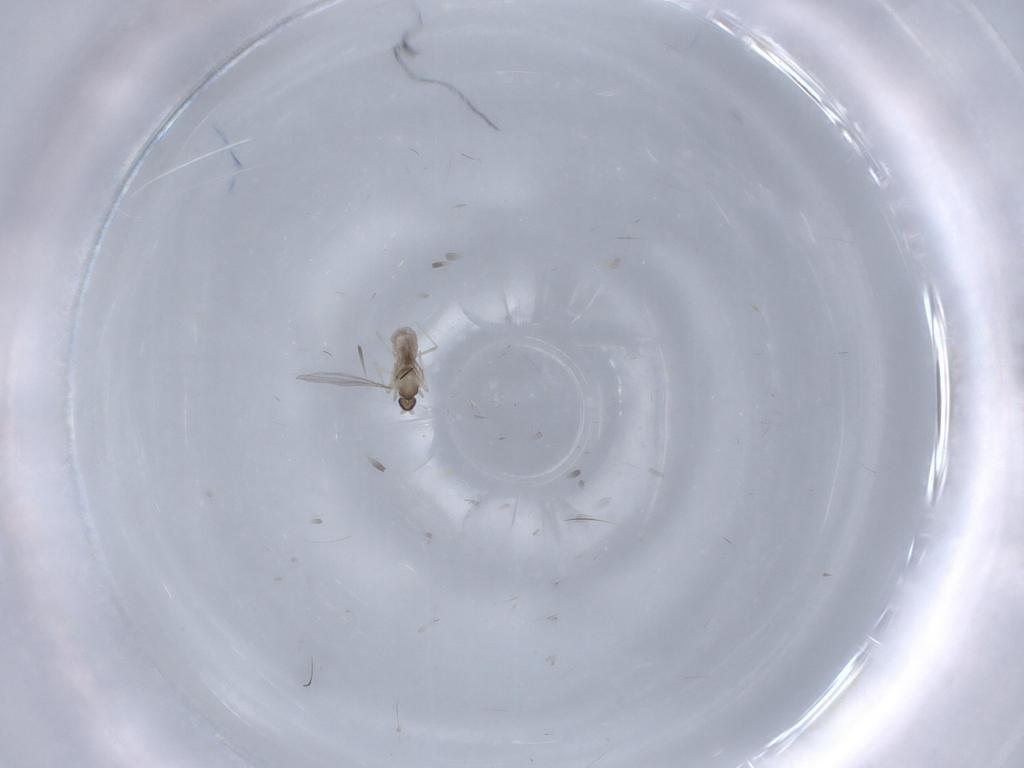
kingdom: Animalia
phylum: Arthropoda
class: Insecta
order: Diptera
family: Cecidomyiidae
